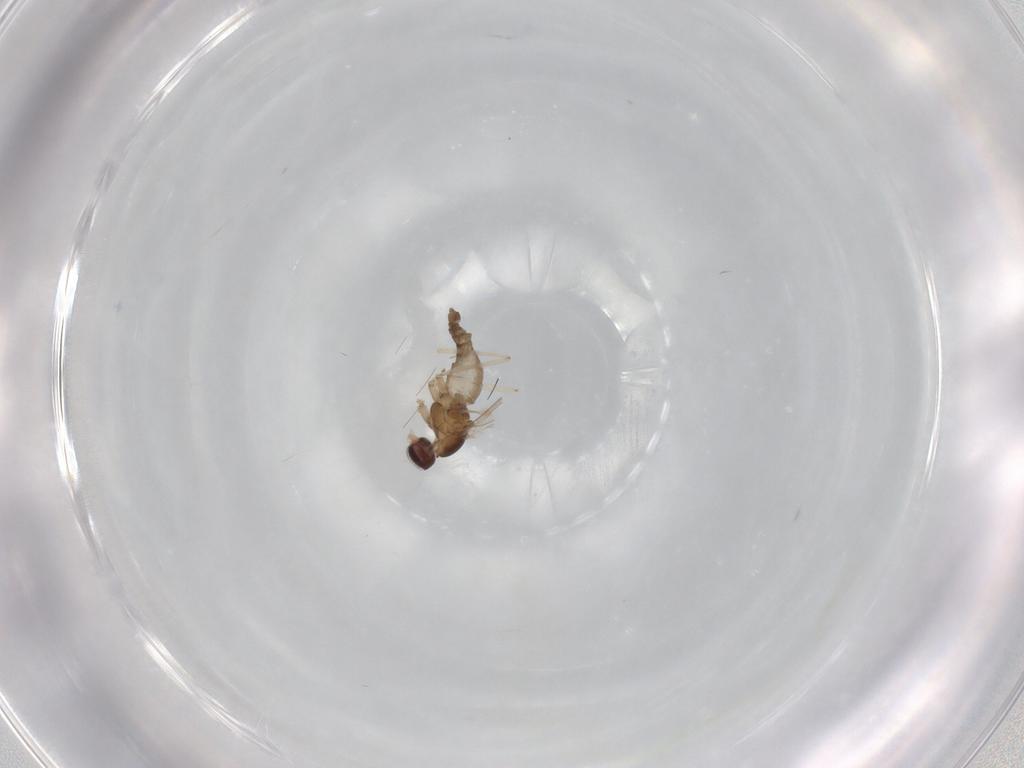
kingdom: Animalia
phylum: Arthropoda
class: Insecta
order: Diptera
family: Cecidomyiidae
